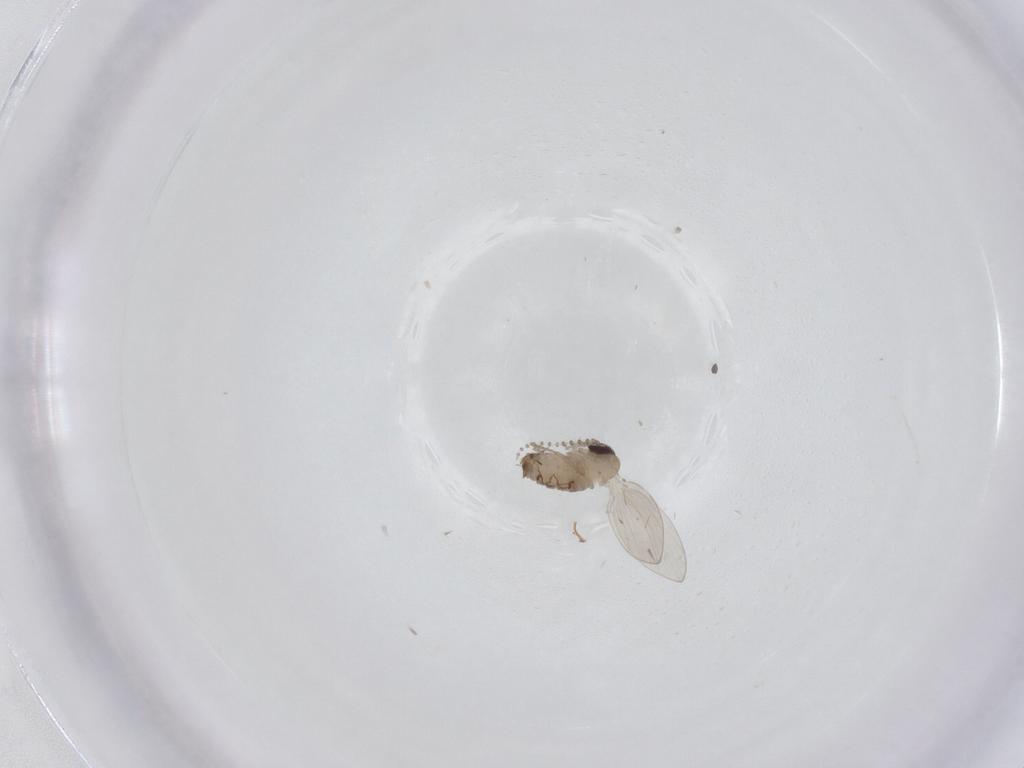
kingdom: Animalia
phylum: Arthropoda
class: Insecta
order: Diptera
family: Psychodidae
